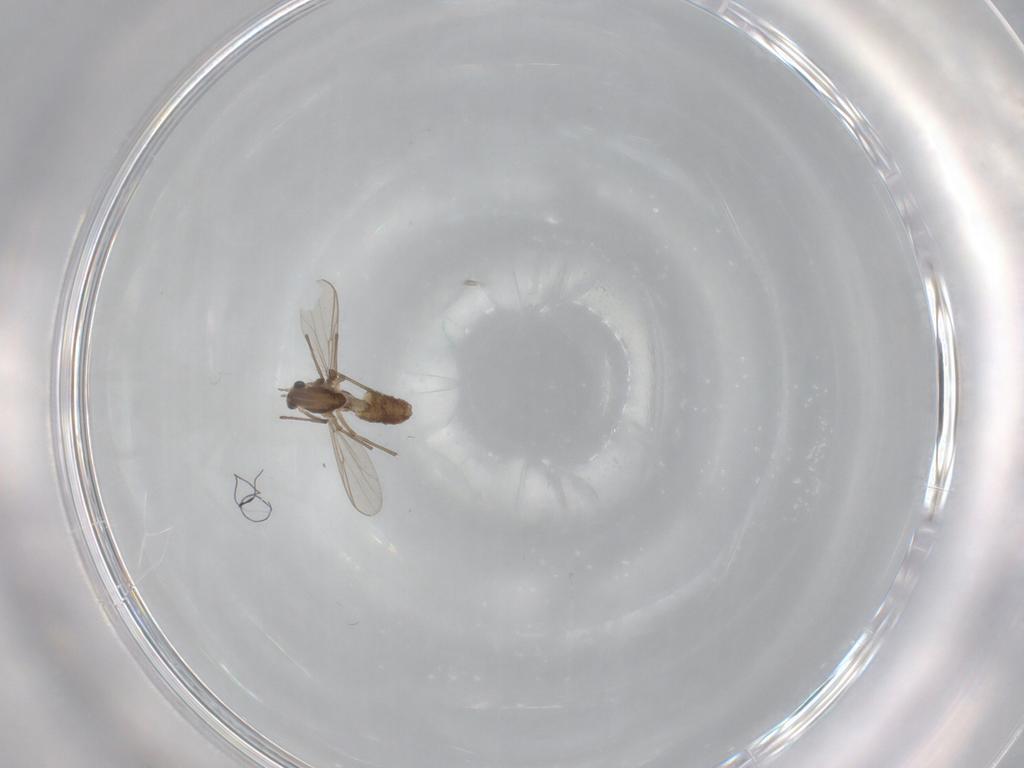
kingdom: Animalia
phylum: Arthropoda
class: Insecta
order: Diptera
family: Chironomidae
